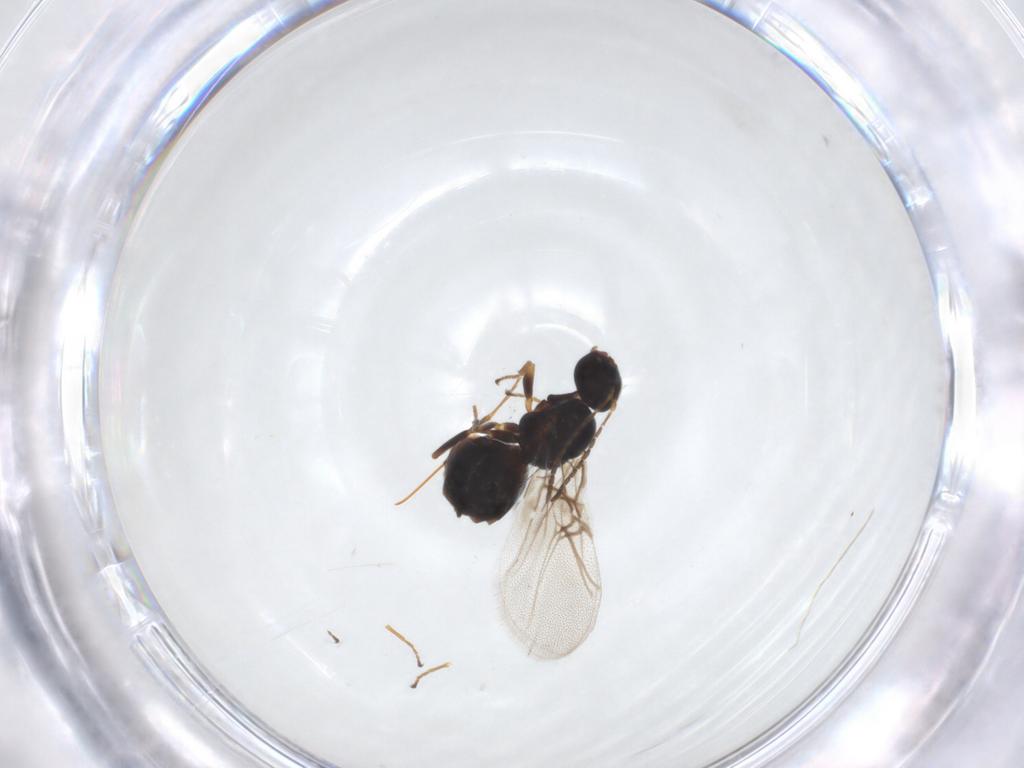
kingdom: Animalia
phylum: Arthropoda
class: Insecta
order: Hymenoptera
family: Cynipidae
